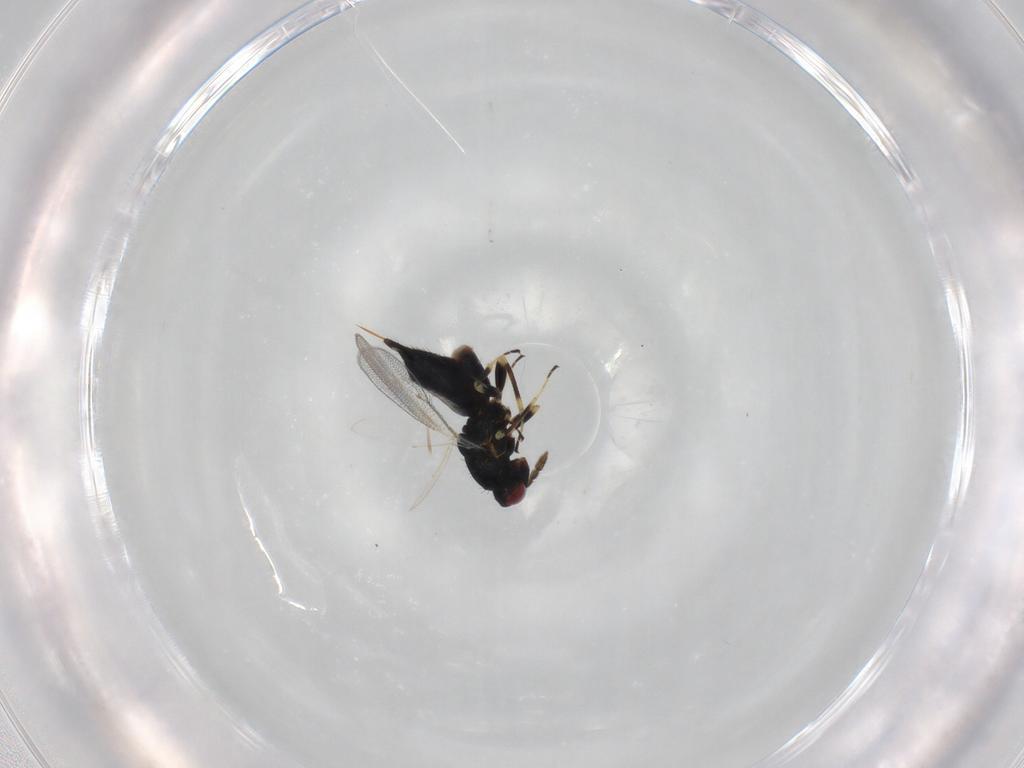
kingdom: Animalia
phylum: Arthropoda
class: Insecta
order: Hymenoptera
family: Eulophidae
